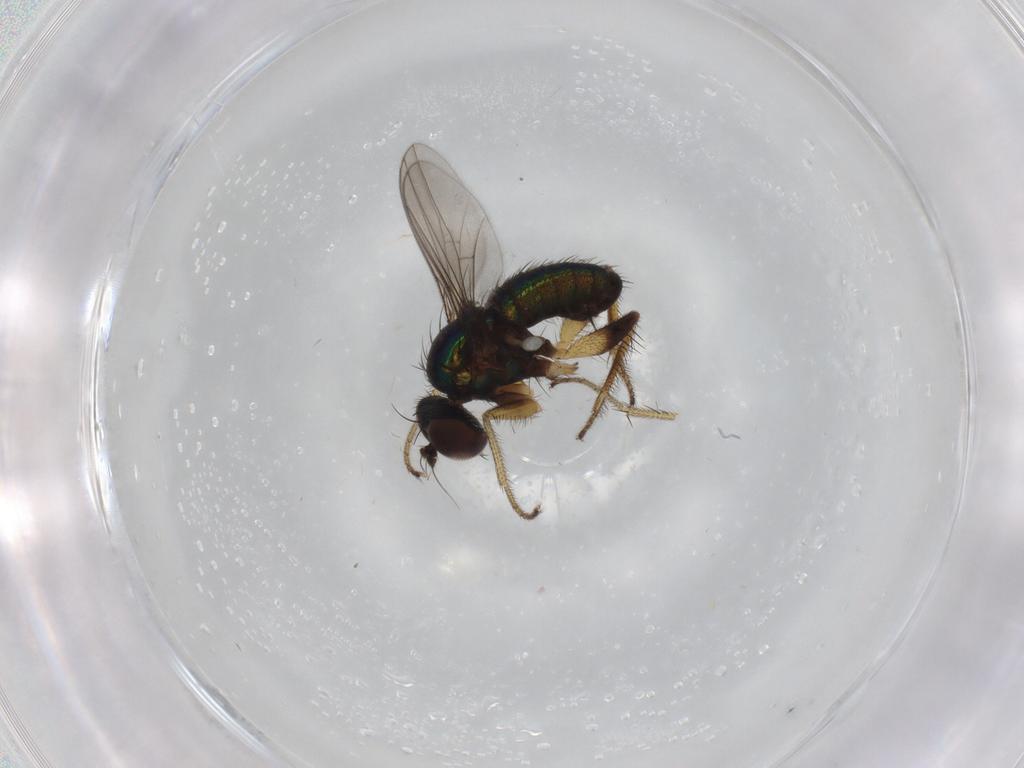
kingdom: Animalia
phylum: Arthropoda
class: Insecta
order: Diptera
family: Dolichopodidae
